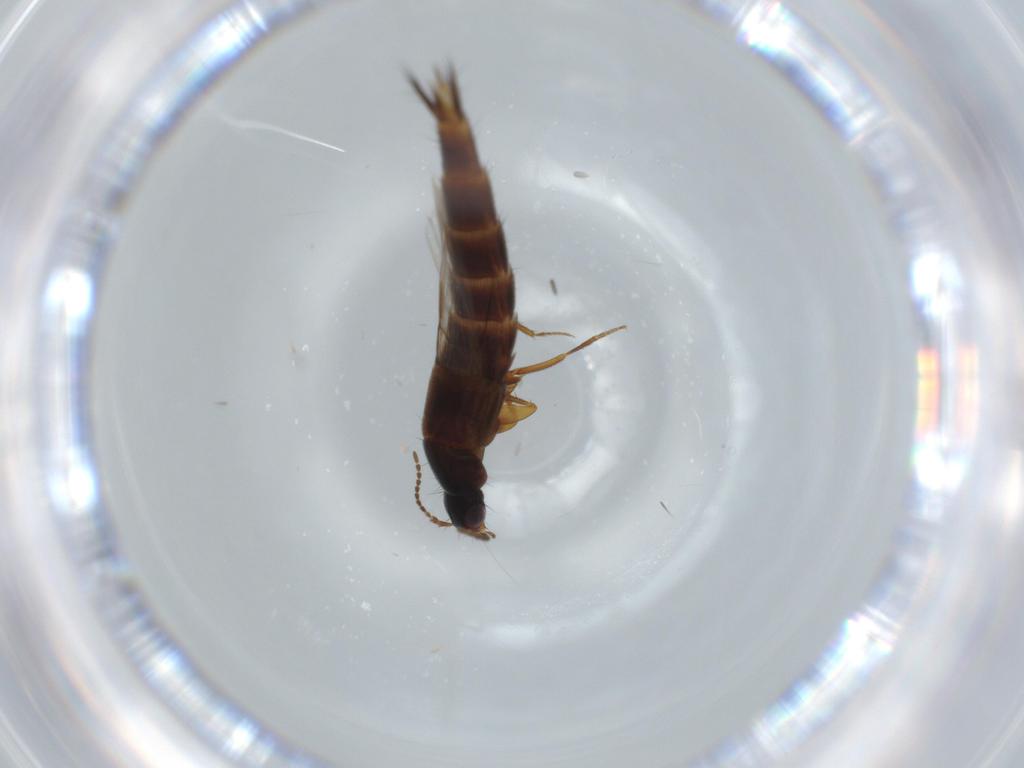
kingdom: Animalia
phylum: Arthropoda
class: Insecta
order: Coleoptera
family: Staphylinidae
